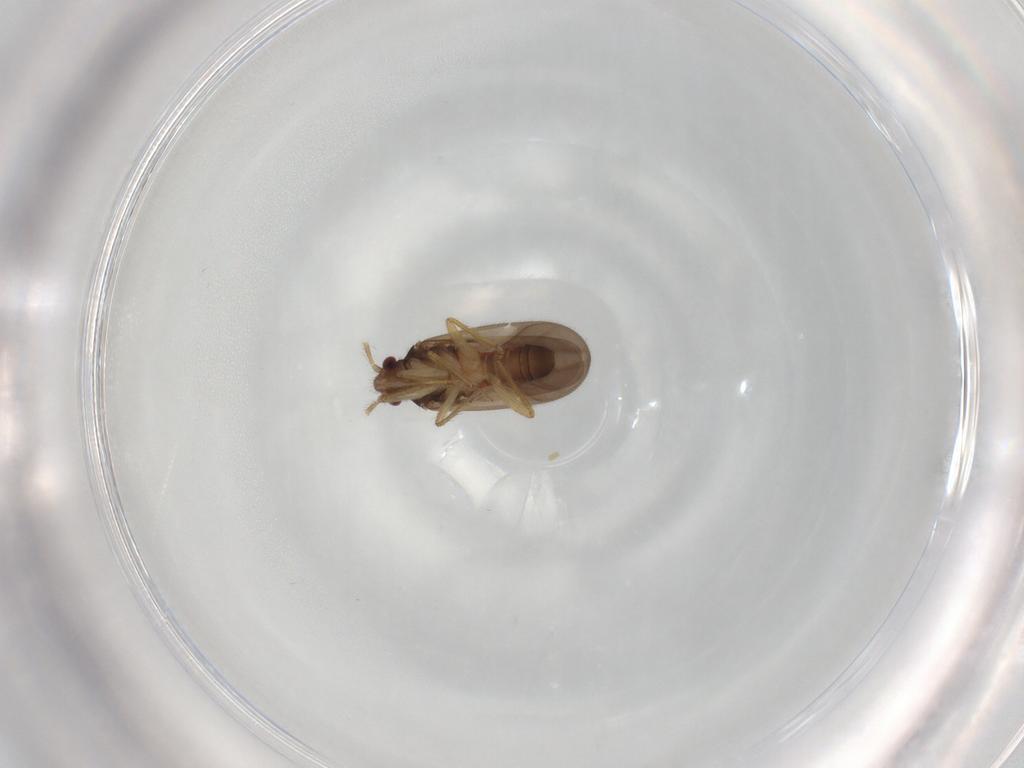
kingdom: Animalia
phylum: Arthropoda
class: Insecta
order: Hemiptera
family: Ceratocombidae
